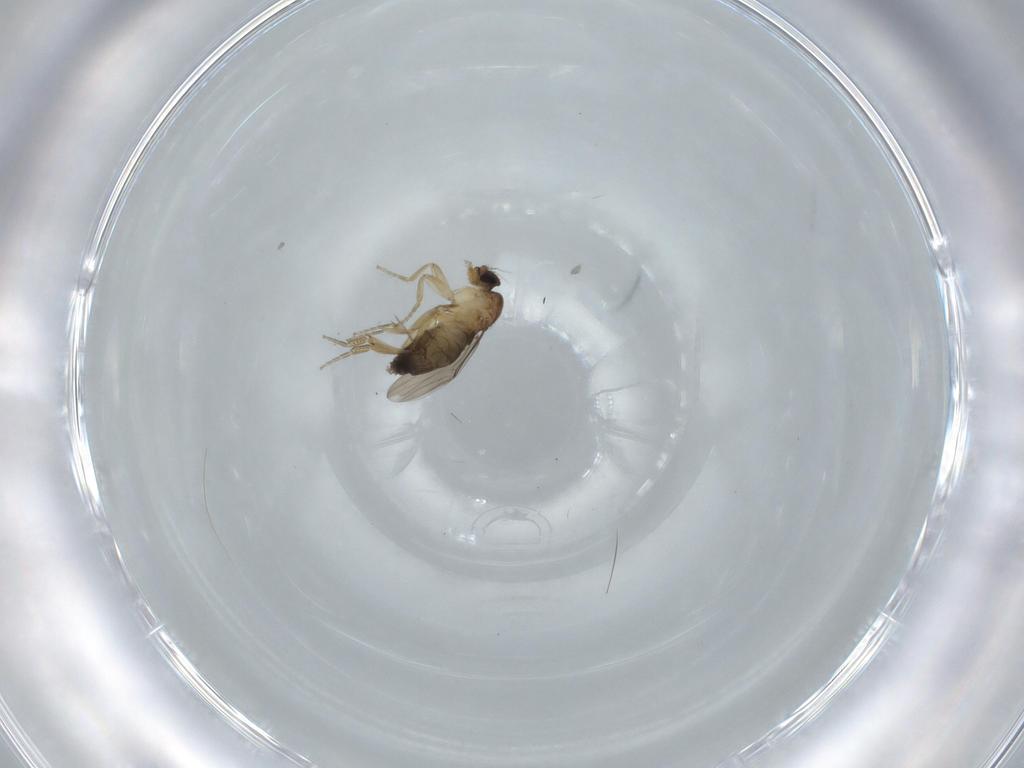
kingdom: Animalia
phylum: Arthropoda
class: Insecta
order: Diptera
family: Phoridae
